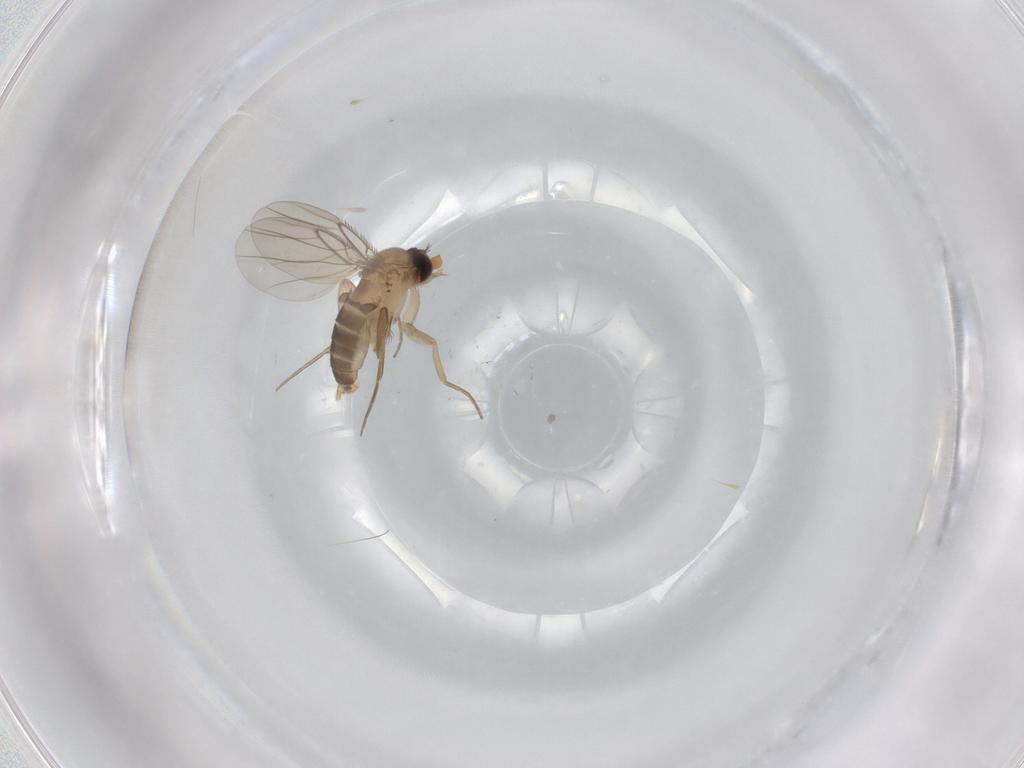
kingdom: Animalia
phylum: Arthropoda
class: Insecta
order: Diptera
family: Phoridae
